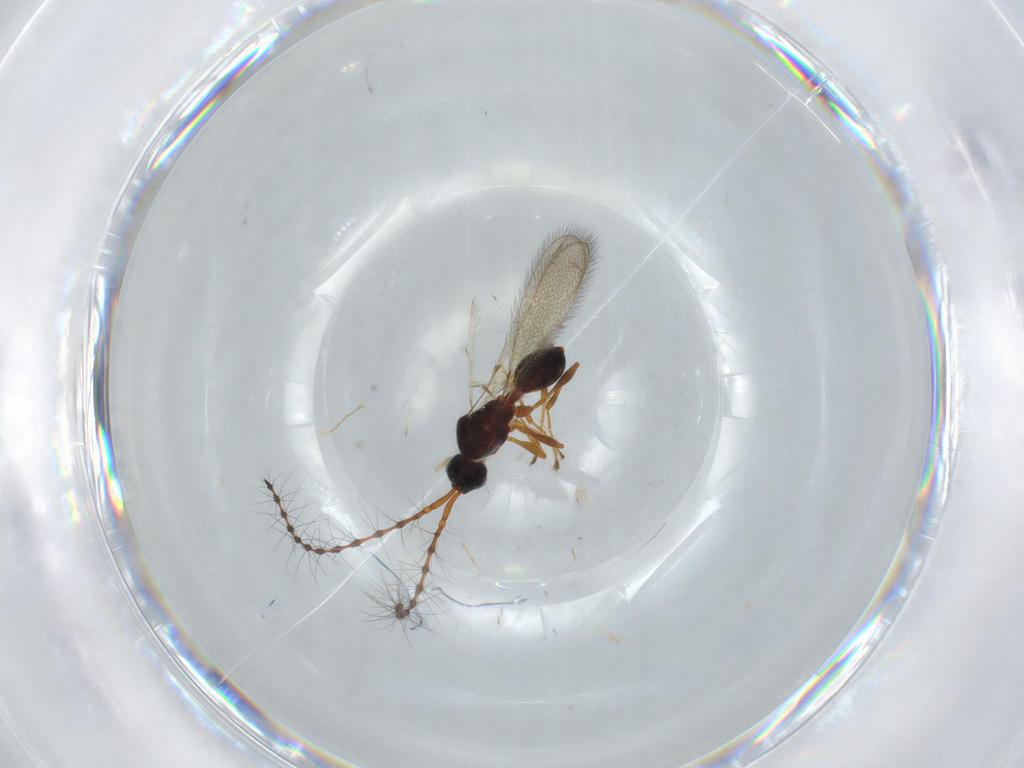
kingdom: Animalia
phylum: Arthropoda
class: Insecta
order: Hymenoptera
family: Diapriidae
